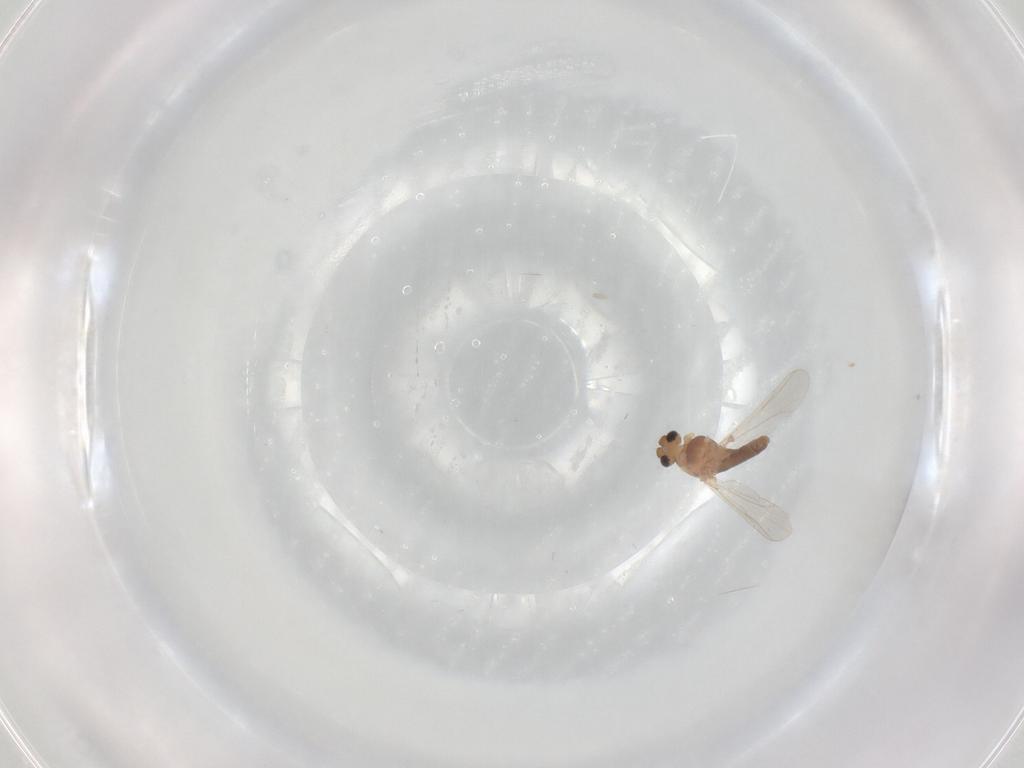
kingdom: Animalia
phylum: Arthropoda
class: Insecta
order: Diptera
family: Chironomidae
